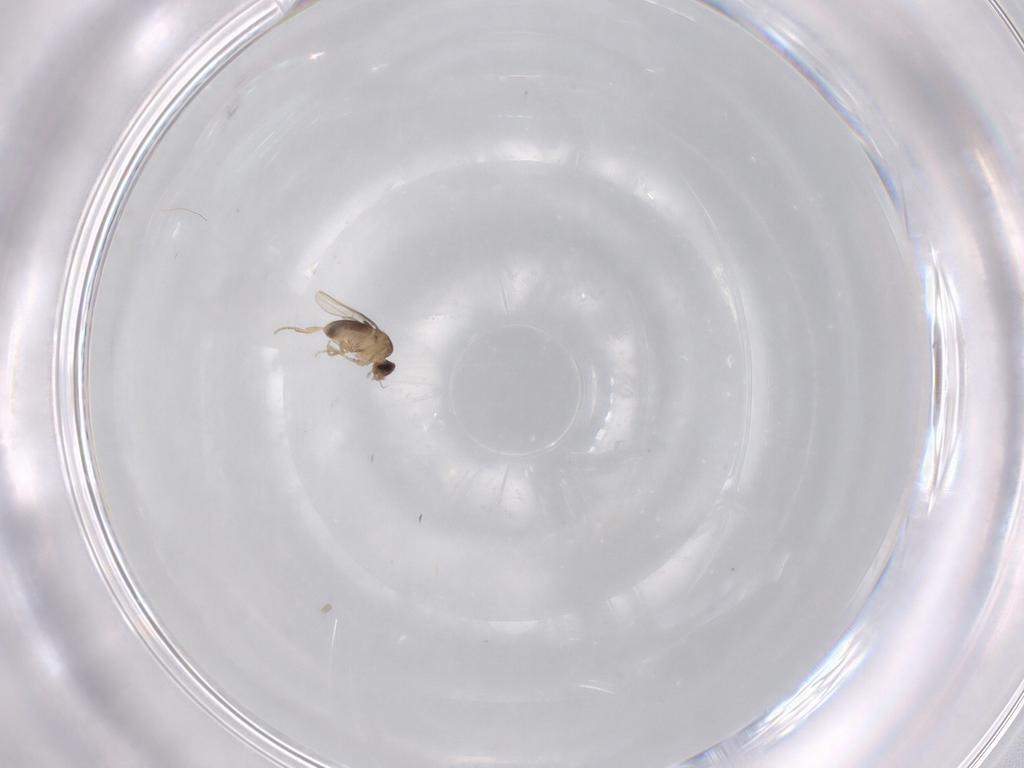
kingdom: Animalia
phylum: Arthropoda
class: Insecta
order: Diptera
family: Phoridae
